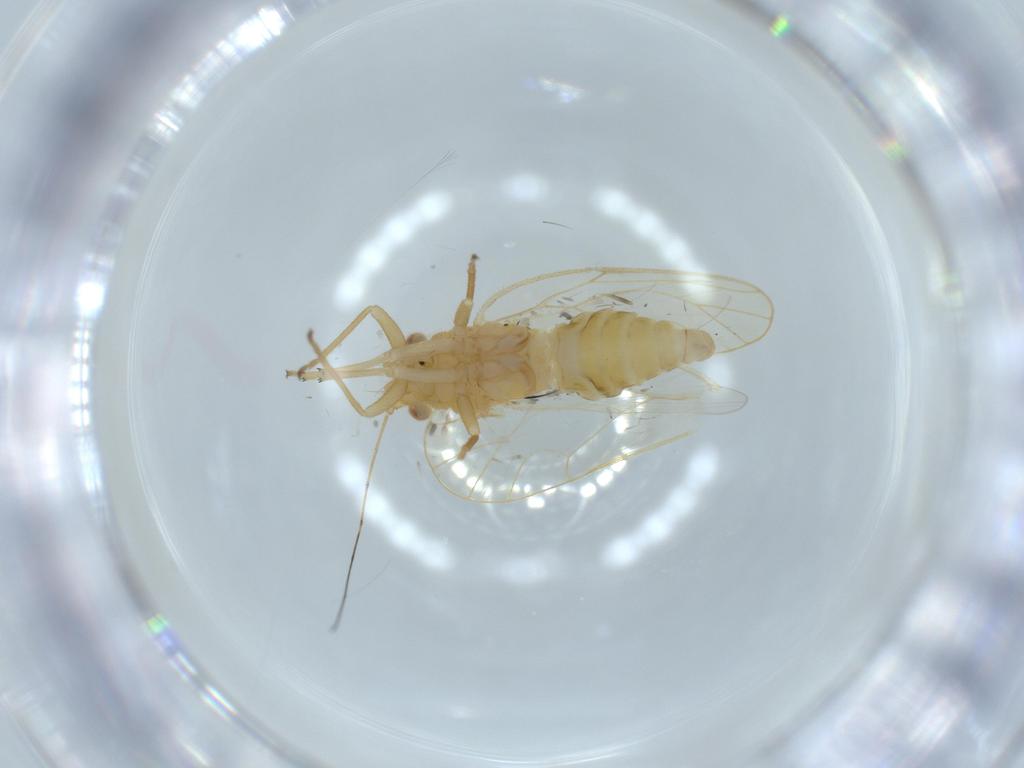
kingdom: Animalia
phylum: Arthropoda
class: Insecta
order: Hemiptera
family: Psyllidae
